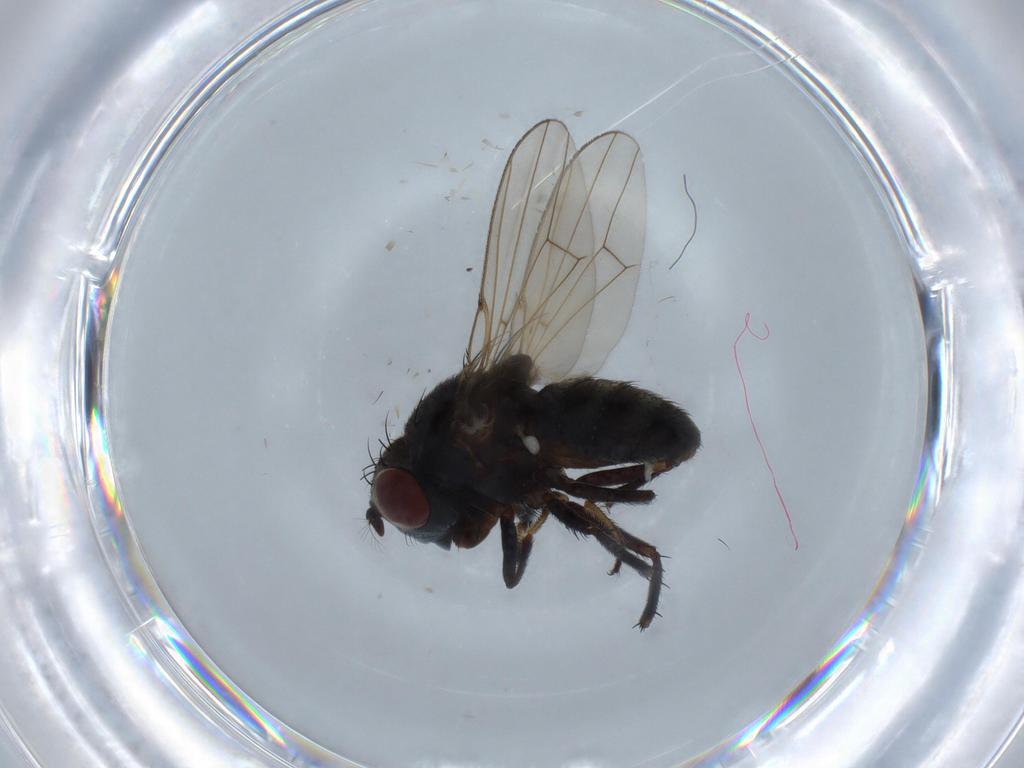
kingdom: Animalia
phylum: Arthropoda
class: Insecta
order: Diptera
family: Ephydridae
